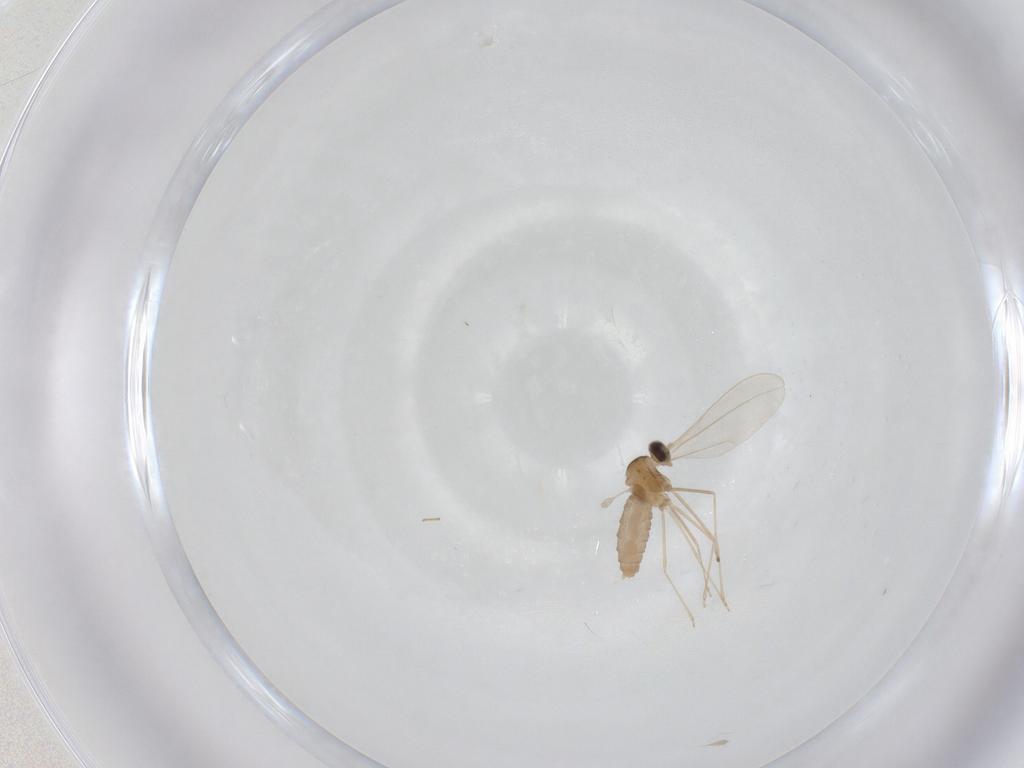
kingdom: Animalia
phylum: Arthropoda
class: Insecta
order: Diptera
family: Cecidomyiidae
